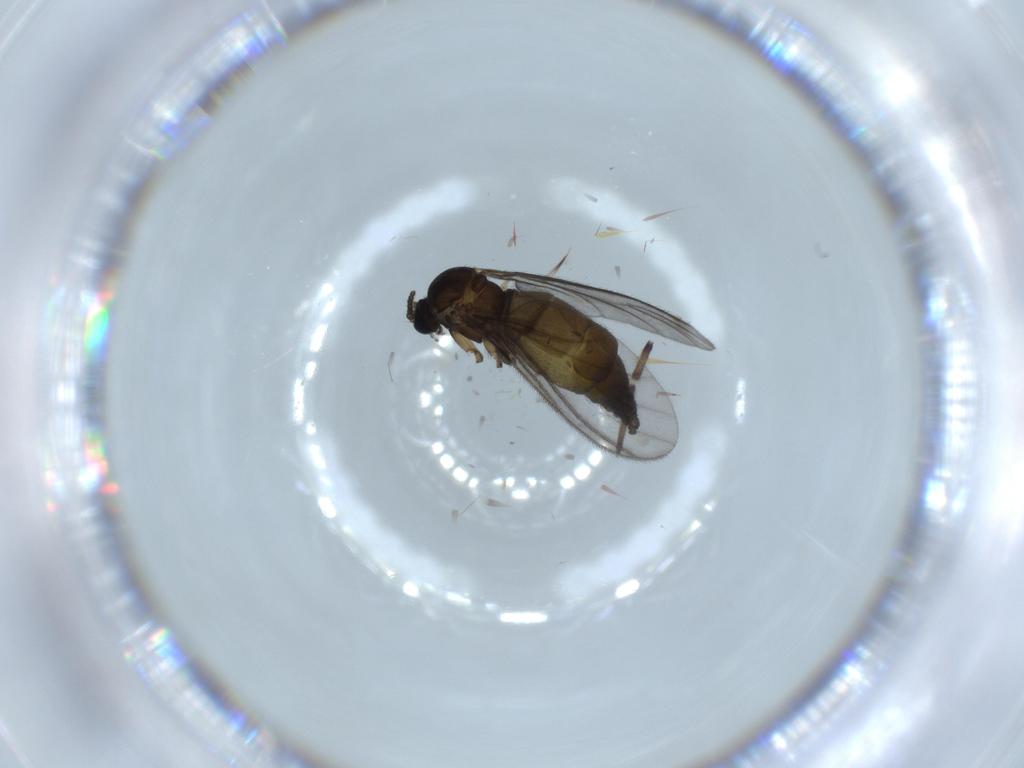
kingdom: Animalia
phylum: Arthropoda
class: Insecta
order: Diptera
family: Sciaridae
